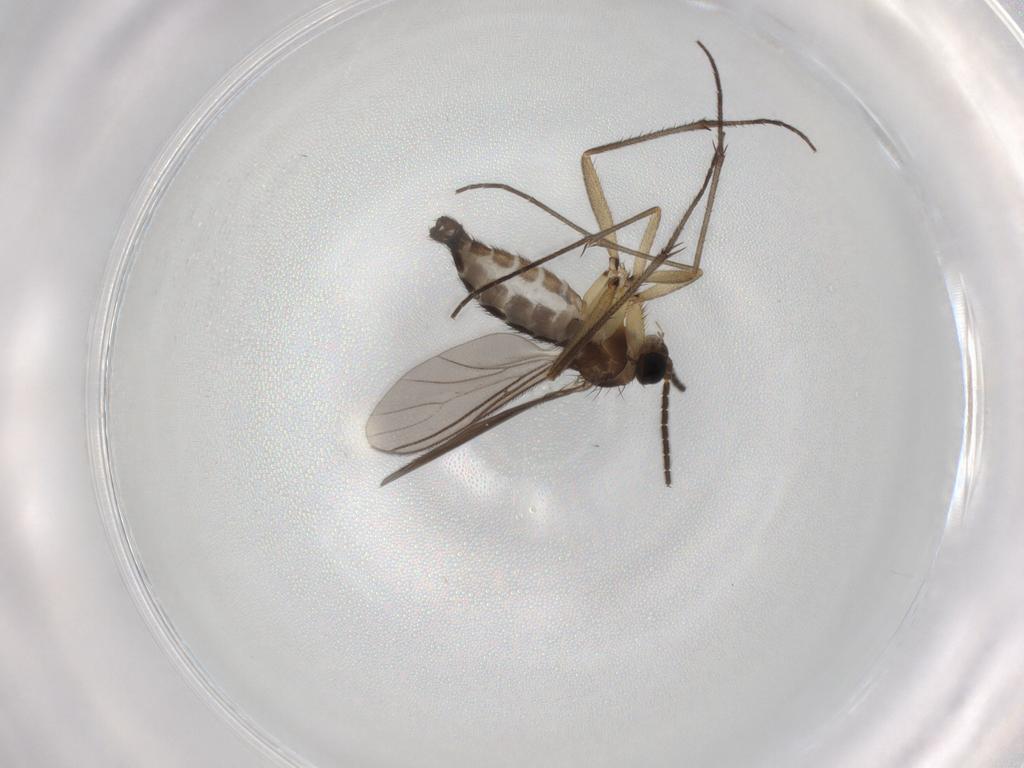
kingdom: Animalia
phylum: Arthropoda
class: Insecta
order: Diptera
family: Sciaridae
